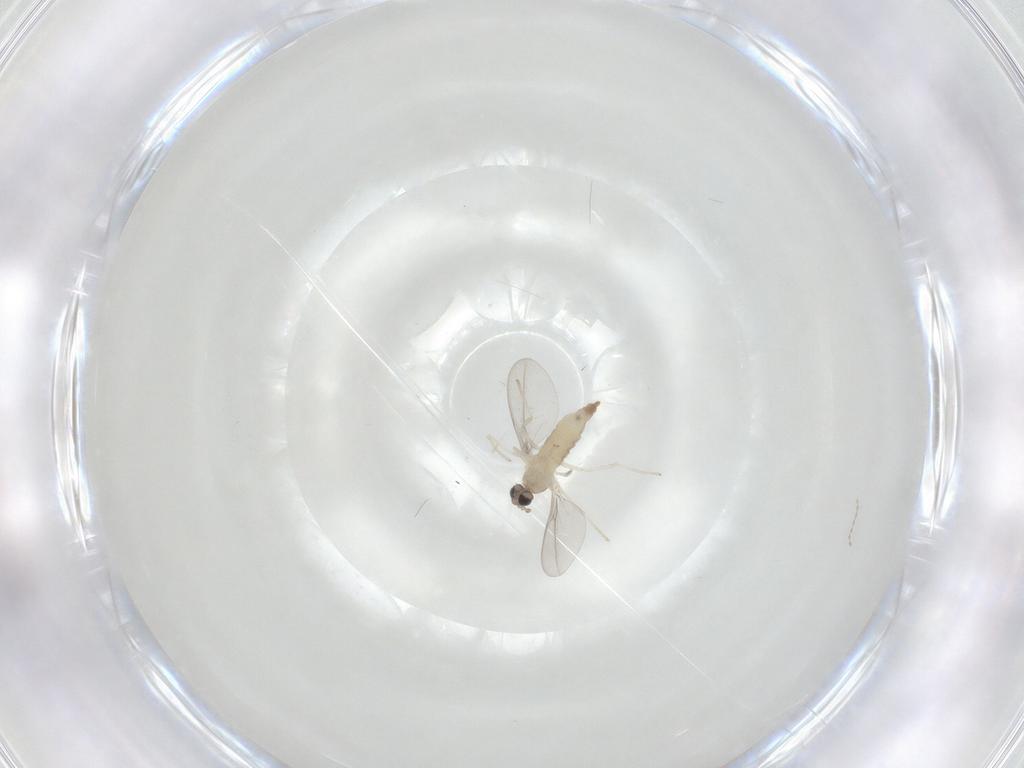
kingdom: Animalia
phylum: Arthropoda
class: Insecta
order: Diptera
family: Cecidomyiidae
